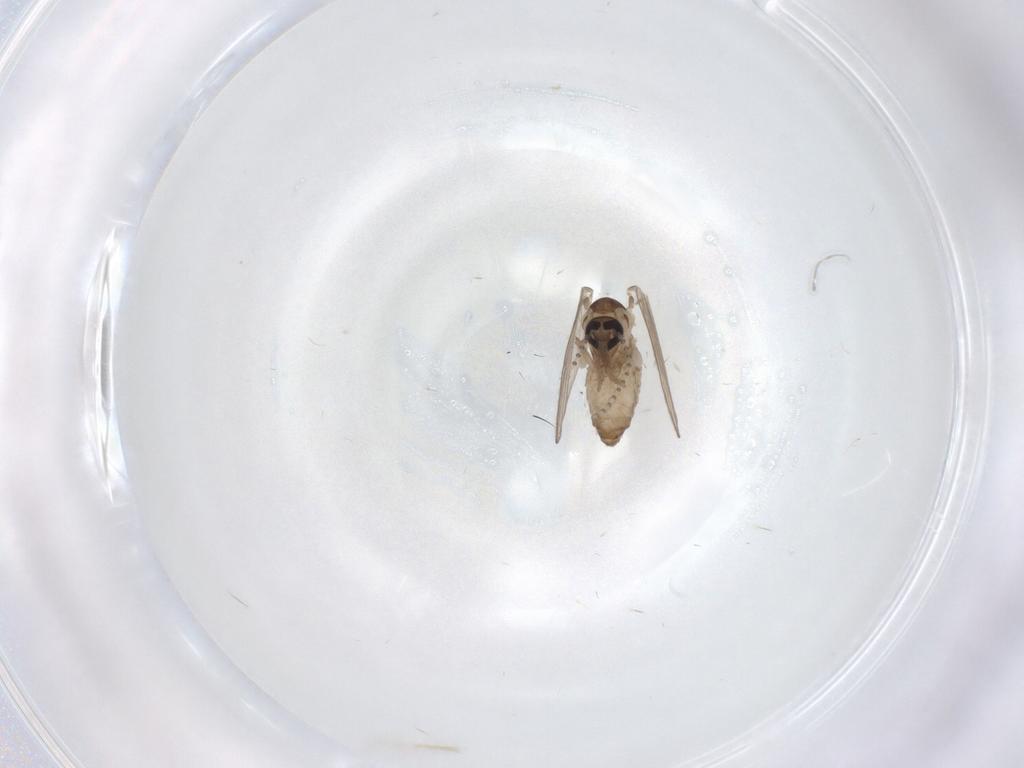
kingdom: Animalia
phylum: Arthropoda
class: Insecta
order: Diptera
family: Psychodidae
